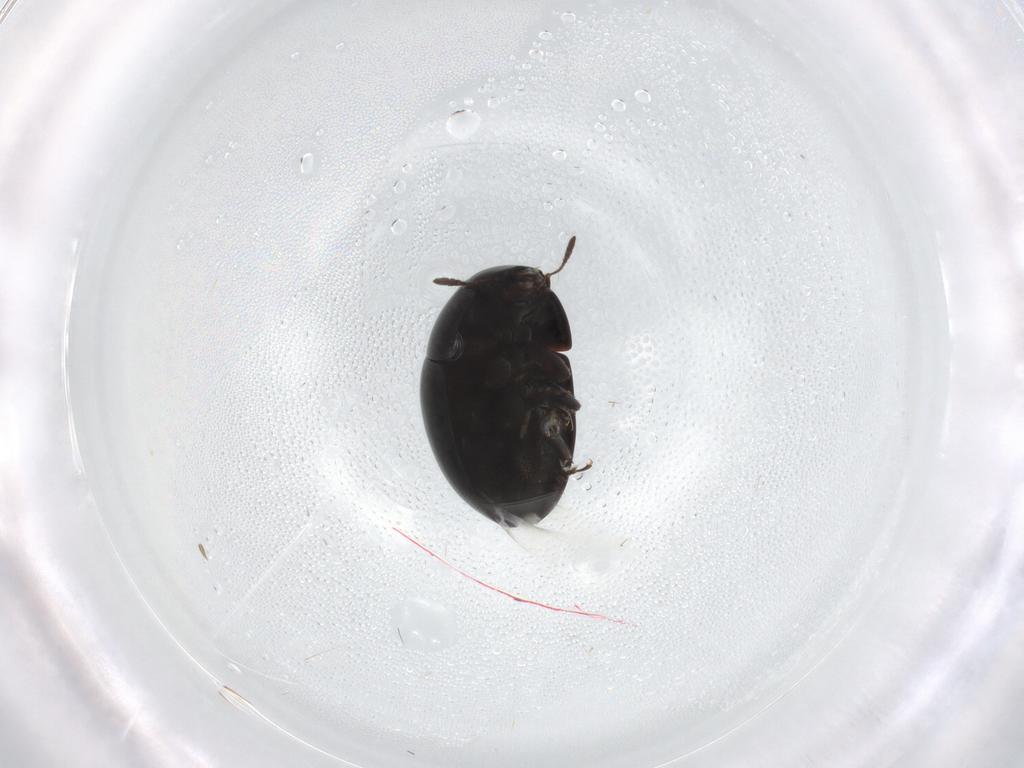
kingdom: Animalia
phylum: Arthropoda
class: Insecta
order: Coleoptera
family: Phalacridae
